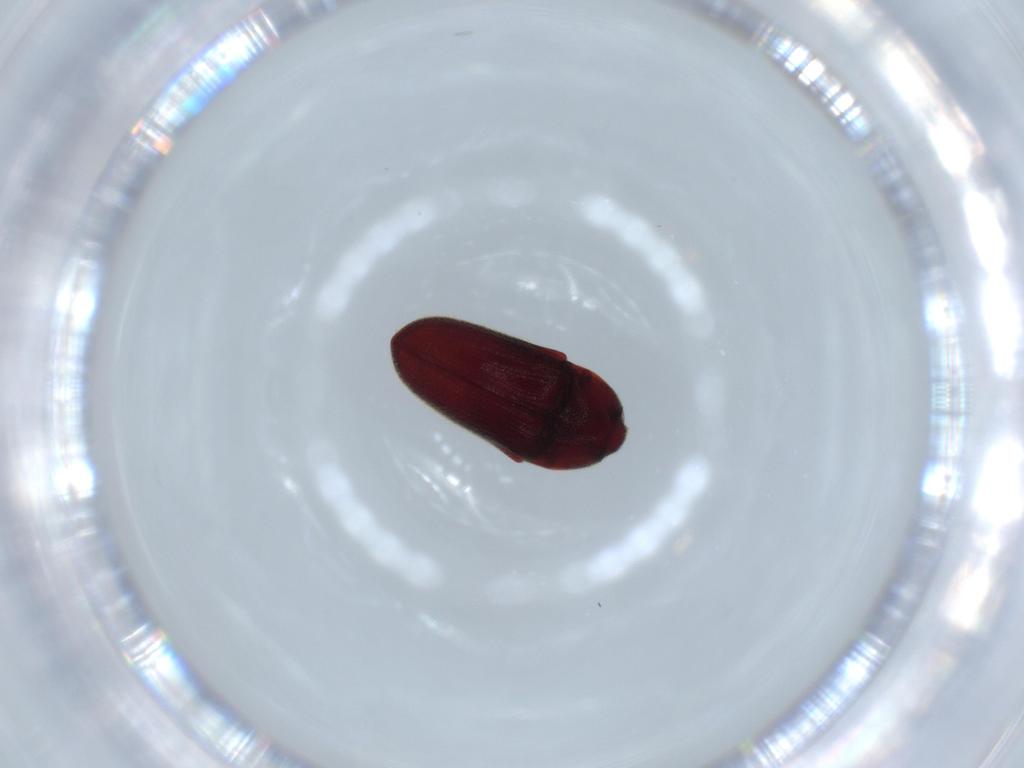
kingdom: Animalia
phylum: Arthropoda
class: Insecta
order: Coleoptera
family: Throscidae
